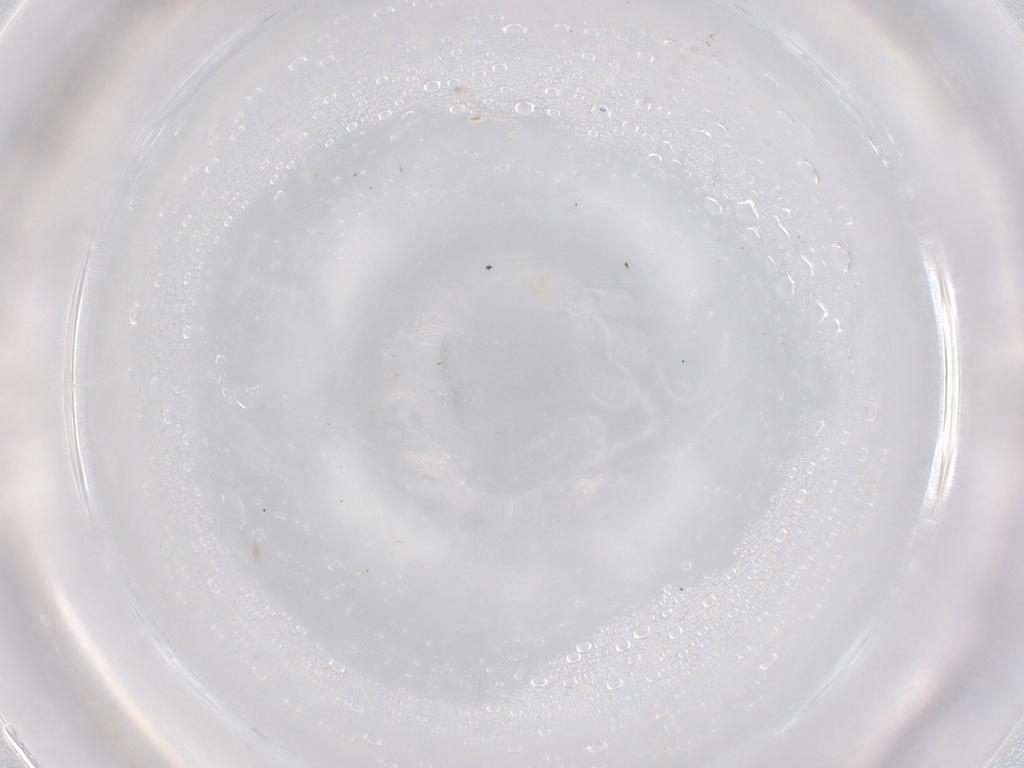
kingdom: Animalia
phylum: Arthropoda
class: Arachnida
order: Trombidiformes
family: Cunaxidae
